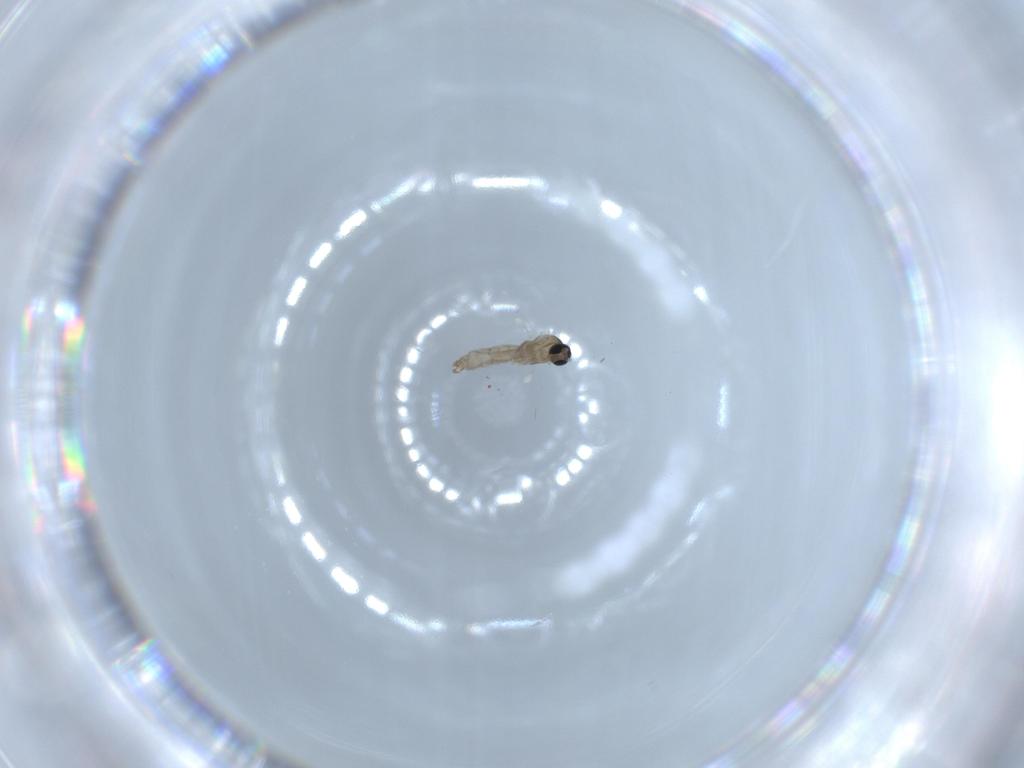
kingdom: Animalia
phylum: Arthropoda
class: Insecta
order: Diptera
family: Cecidomyiidae
